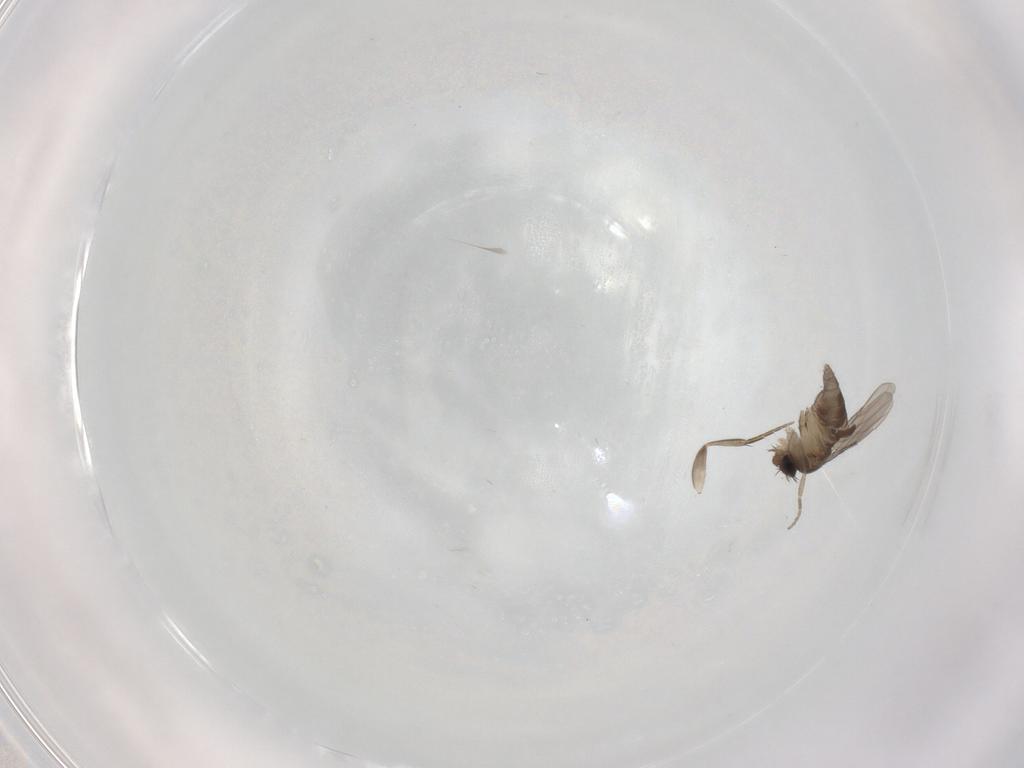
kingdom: Animalia
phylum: Arthropoda
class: Insecta
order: Diptera
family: Phoridae
